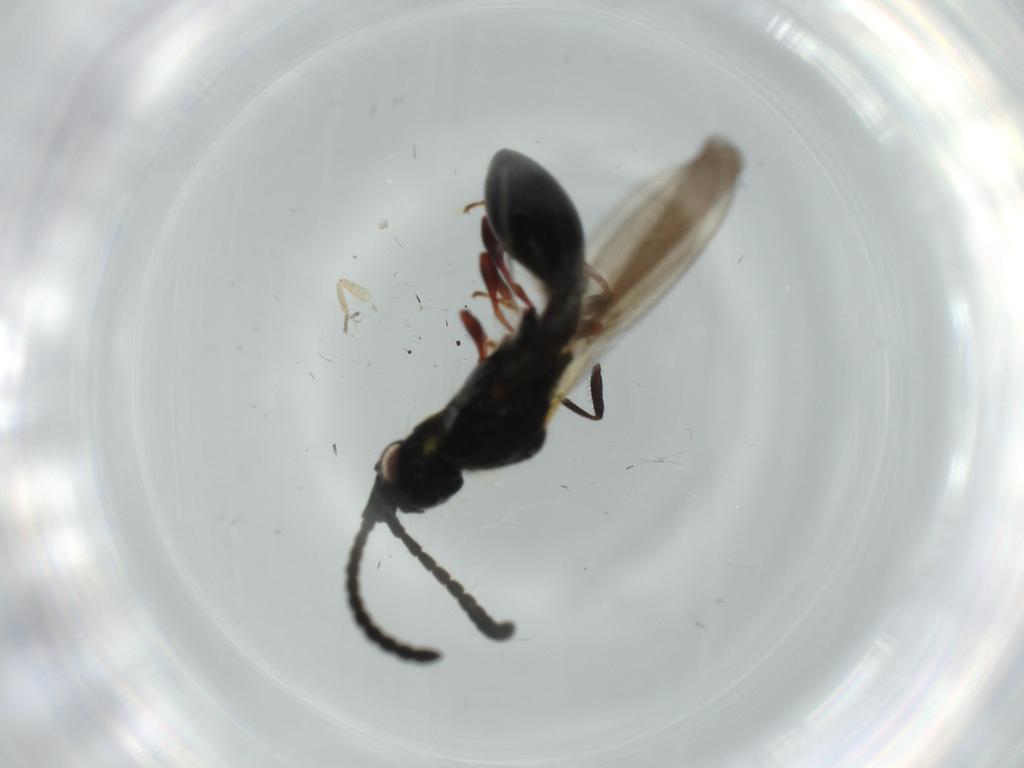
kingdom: Animalia
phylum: Arthropoda
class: Insecta
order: Hymenoptera
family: Diapriidae
